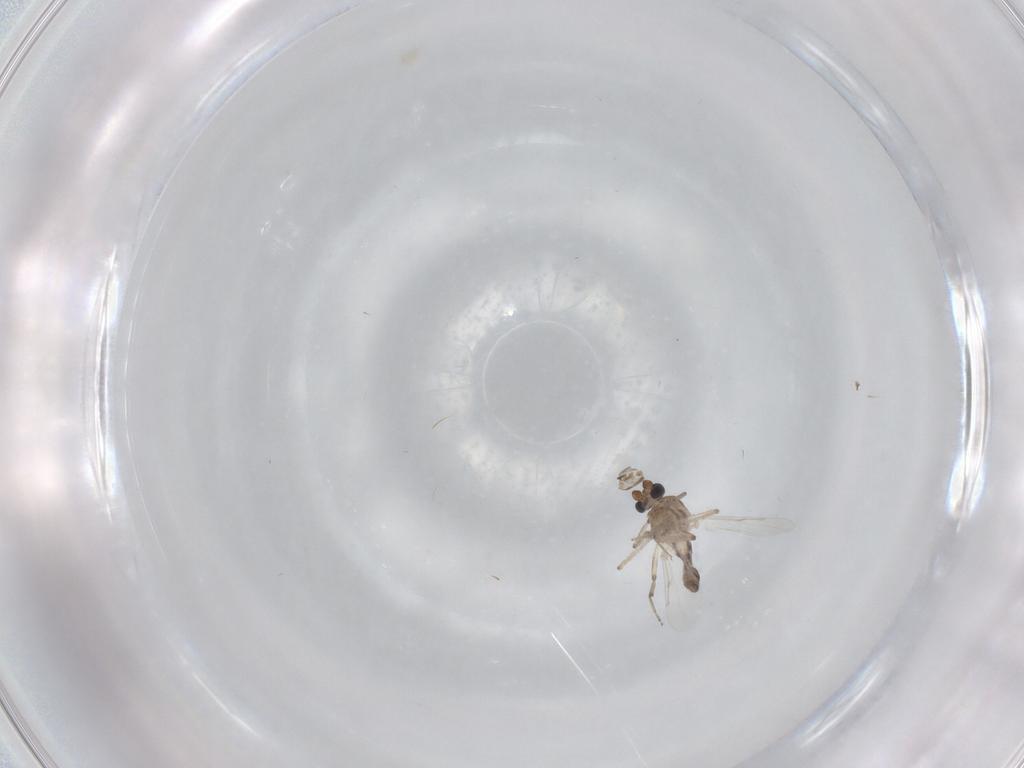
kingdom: Animalia
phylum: Arthropoda
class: Insecta
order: Diptera
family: Ceratopogonidae
